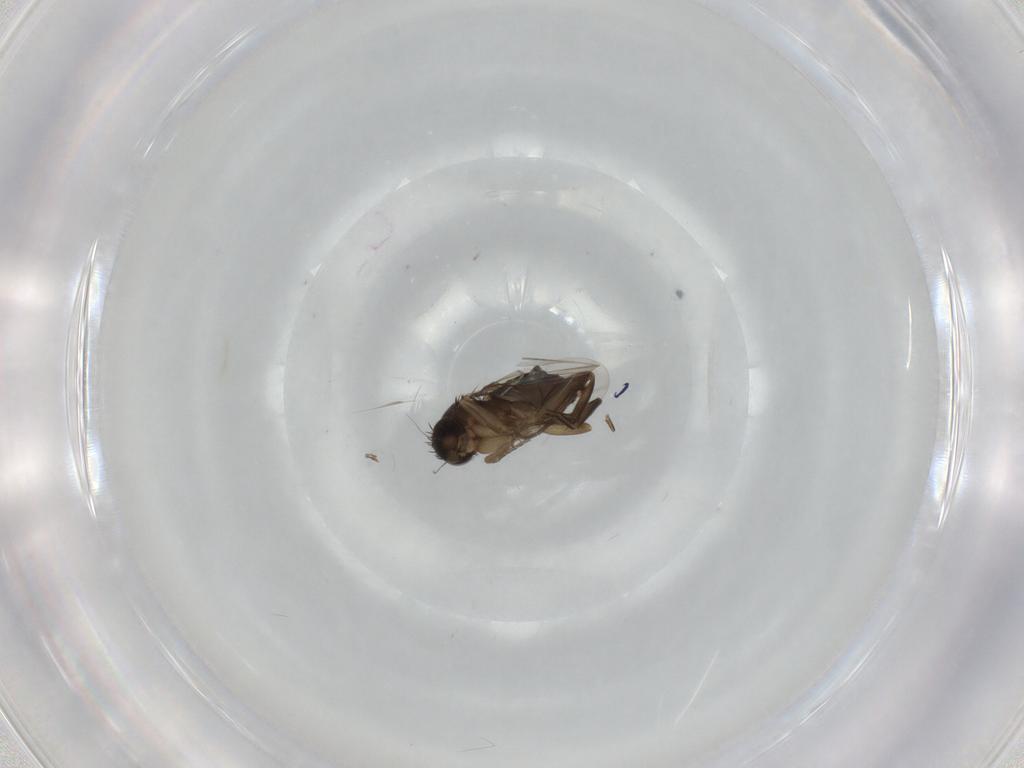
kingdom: Animalia
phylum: Arthropoda
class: Insecta
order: Diptera
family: Phoridae
